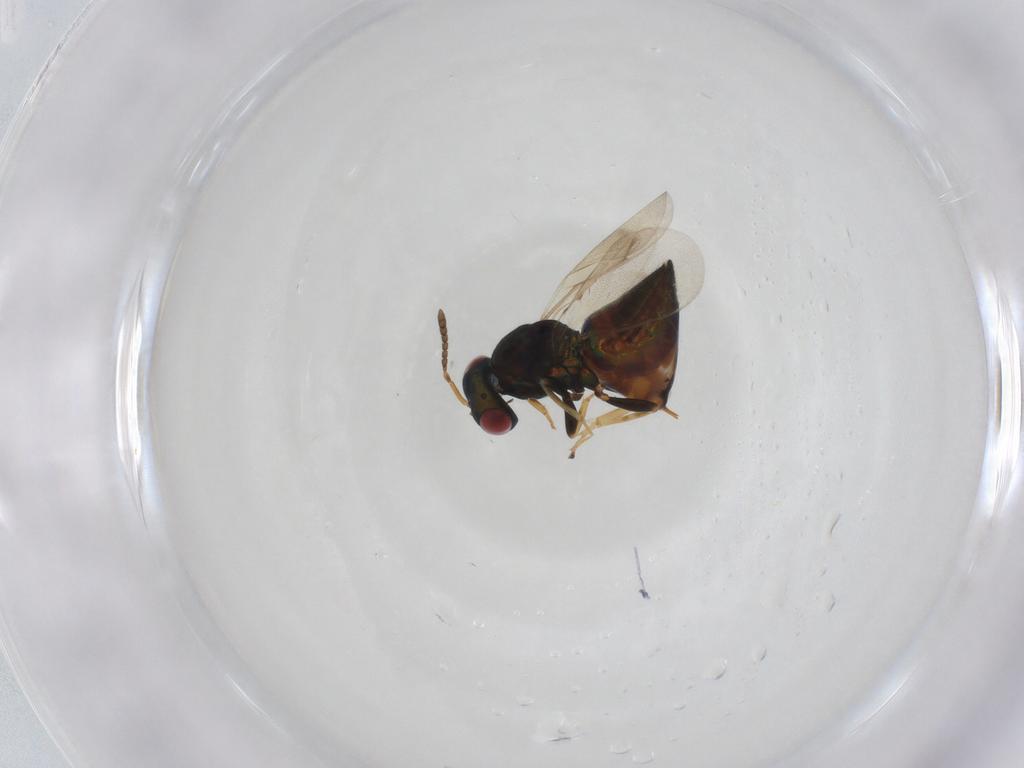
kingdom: Animalia
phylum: Arthropoda
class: Insecta
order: Hymenoptera
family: Pteromalidae
